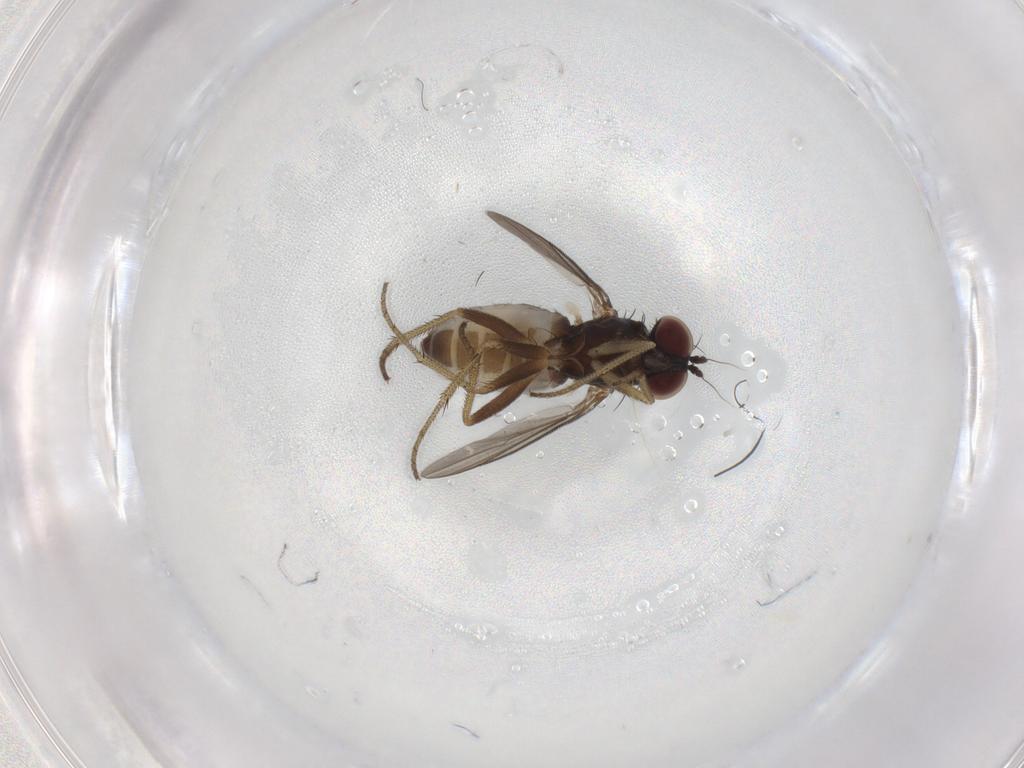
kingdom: Animalia
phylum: Arthropoda
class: Insecta
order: Diptera
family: Chironomidae
